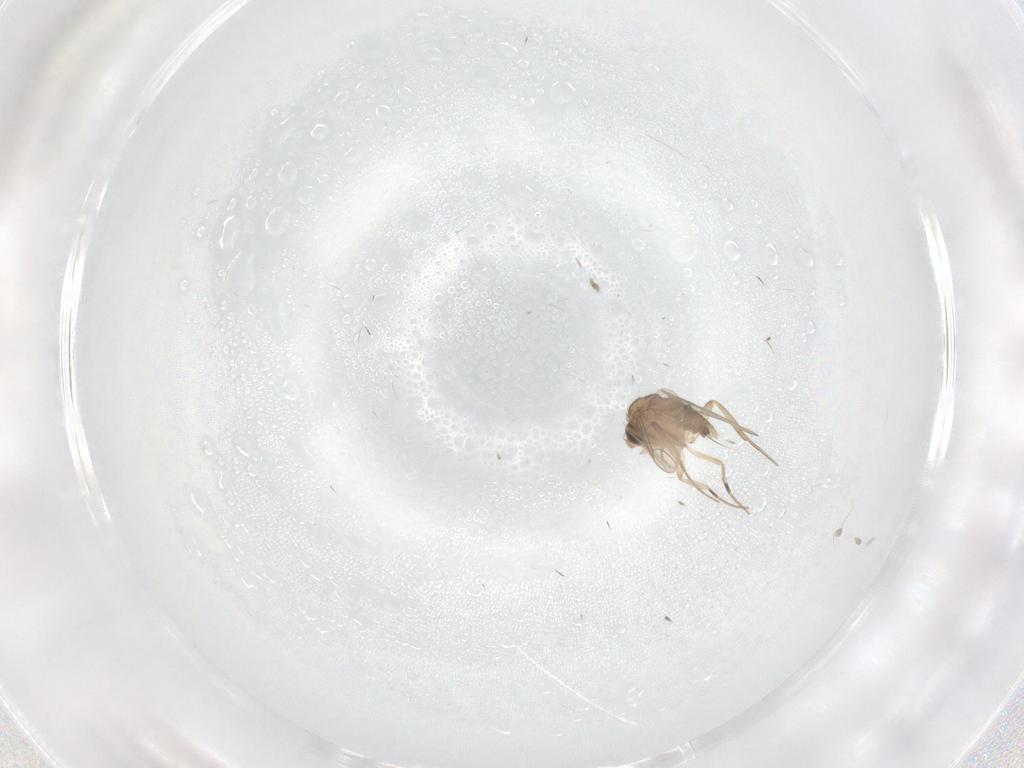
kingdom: Animalia
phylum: Arthropoda
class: Insecta
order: Diptera
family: Phoridae
